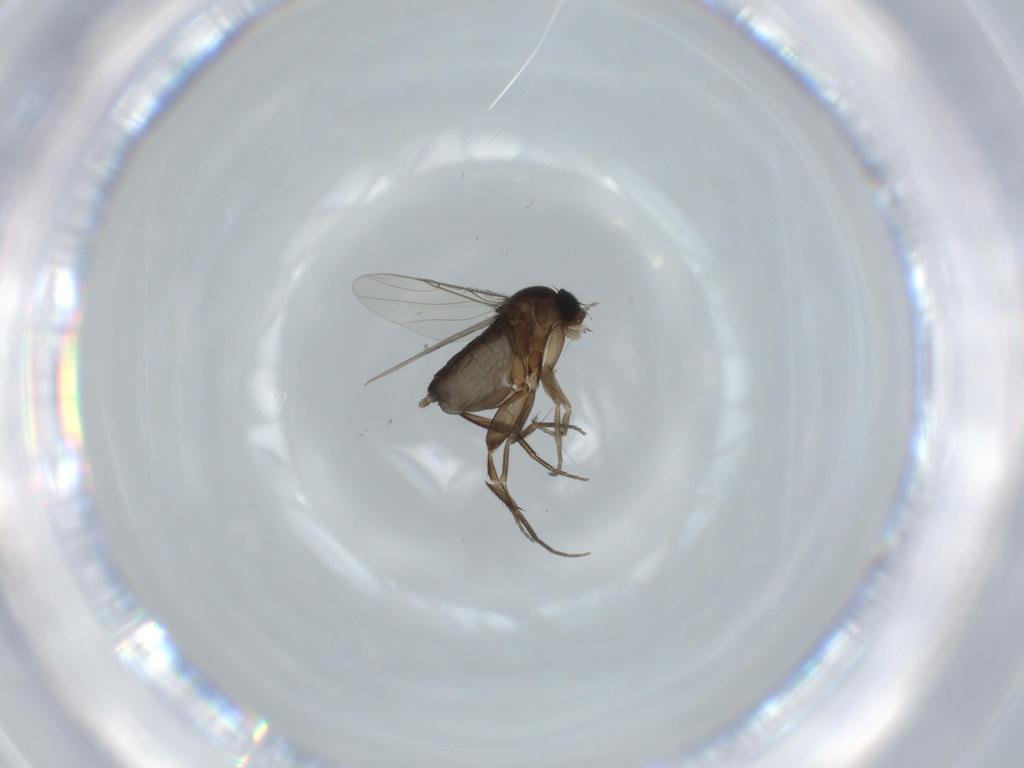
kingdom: Animalia
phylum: Arthropoda
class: Insecta
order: Diptera
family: Phoridae
